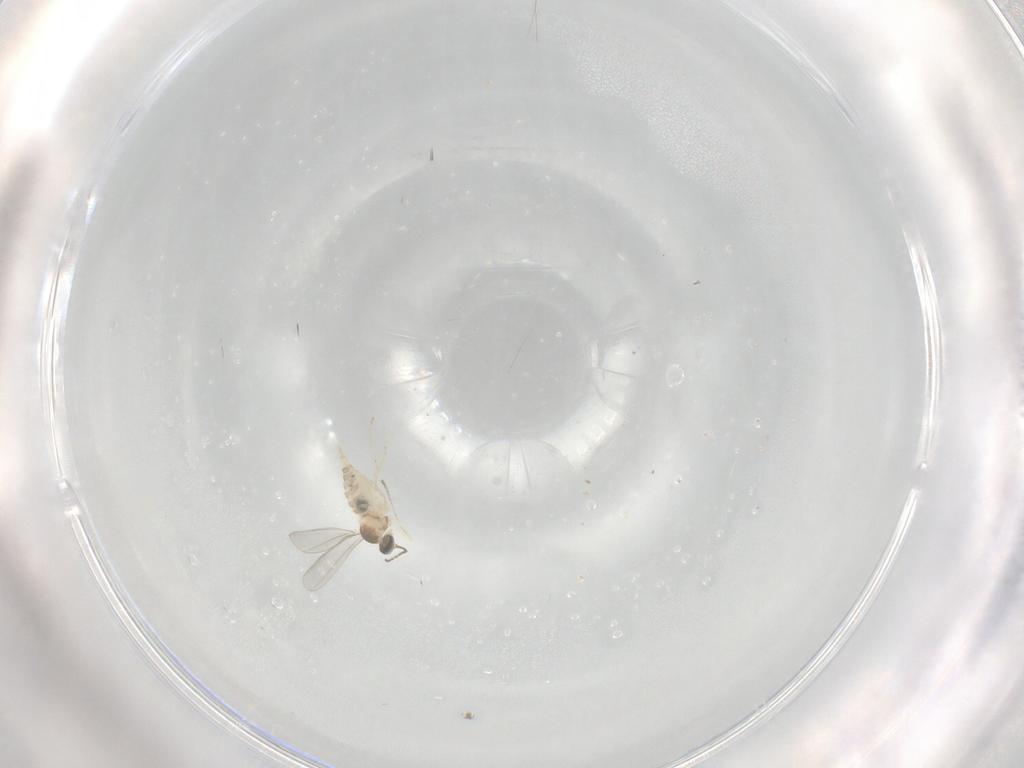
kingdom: Animalia
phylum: Arthropoda
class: Insecta
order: Diptera
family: Cecidomyiidae
